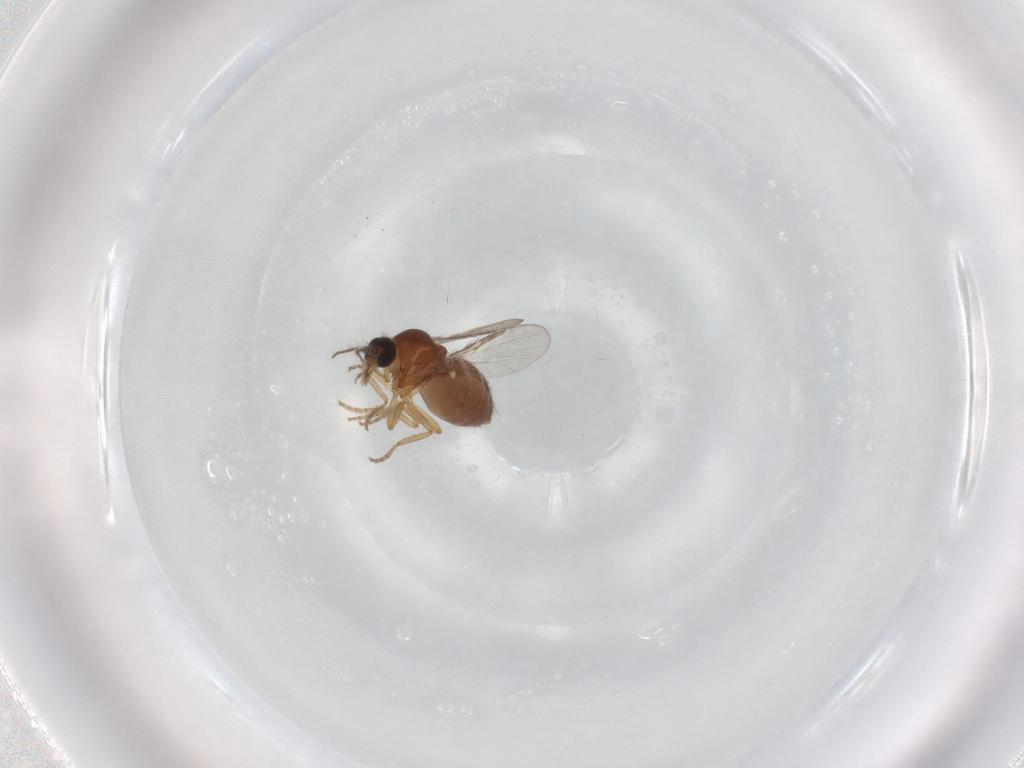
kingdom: Animalia
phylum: Arthropoda
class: Insecta
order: Diptera
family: Ceratopogonidae
